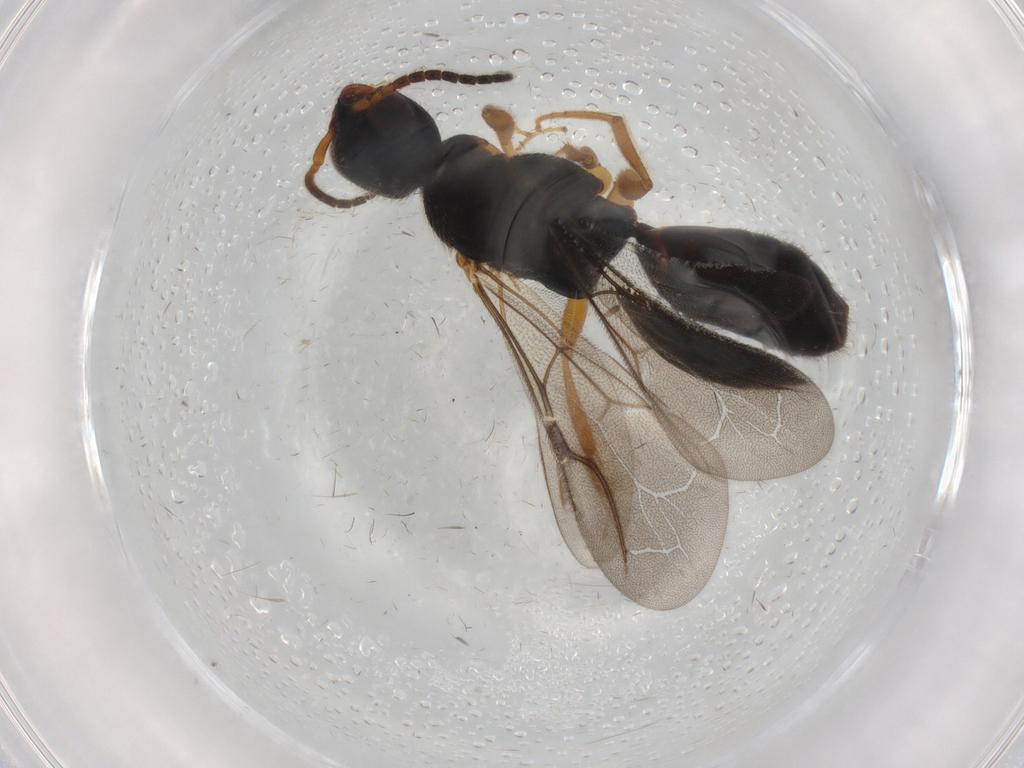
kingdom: Animalia
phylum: Arthropoda
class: Insecta
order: Hymenoptera
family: Bethylidae
